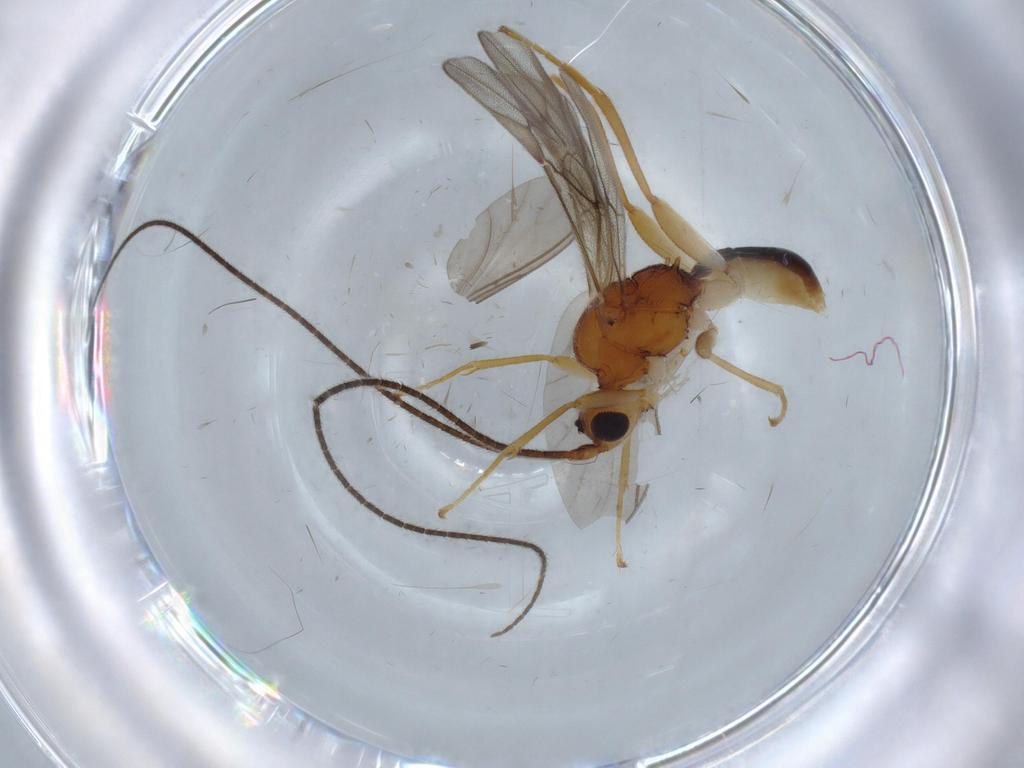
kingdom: Animalia
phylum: Arthropoda
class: Insecta
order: Hymenoptera
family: Braconidae
